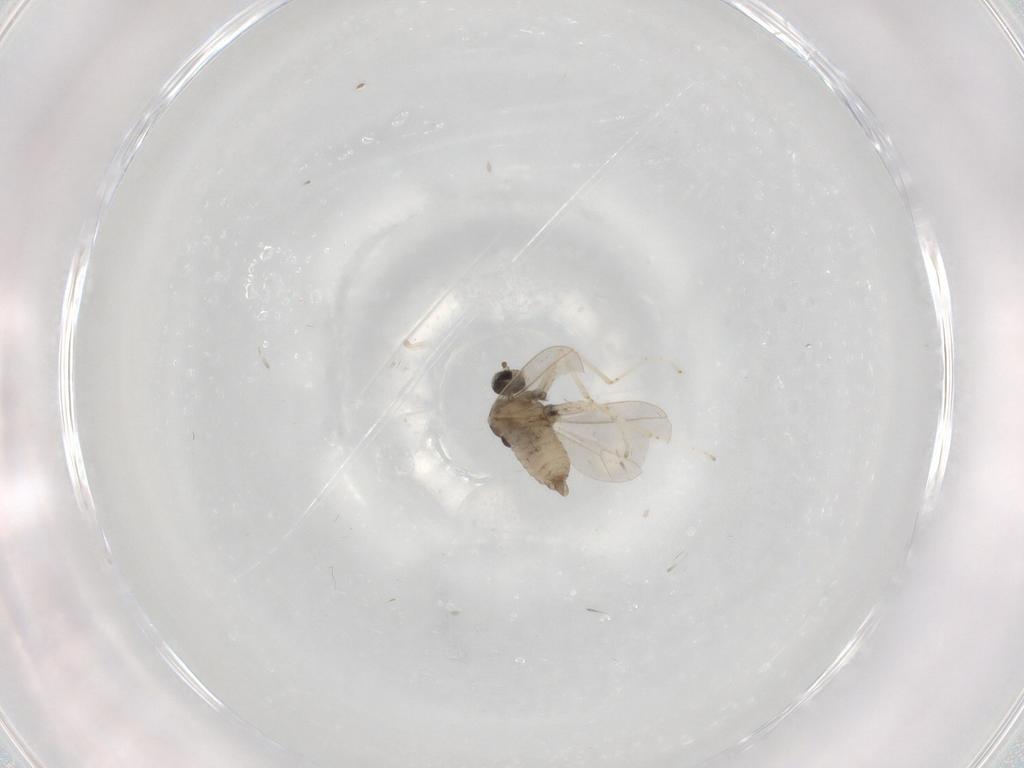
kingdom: Animalia
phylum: Arthropoda
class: Insecta
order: Diptera
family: Cecidomyiidae
